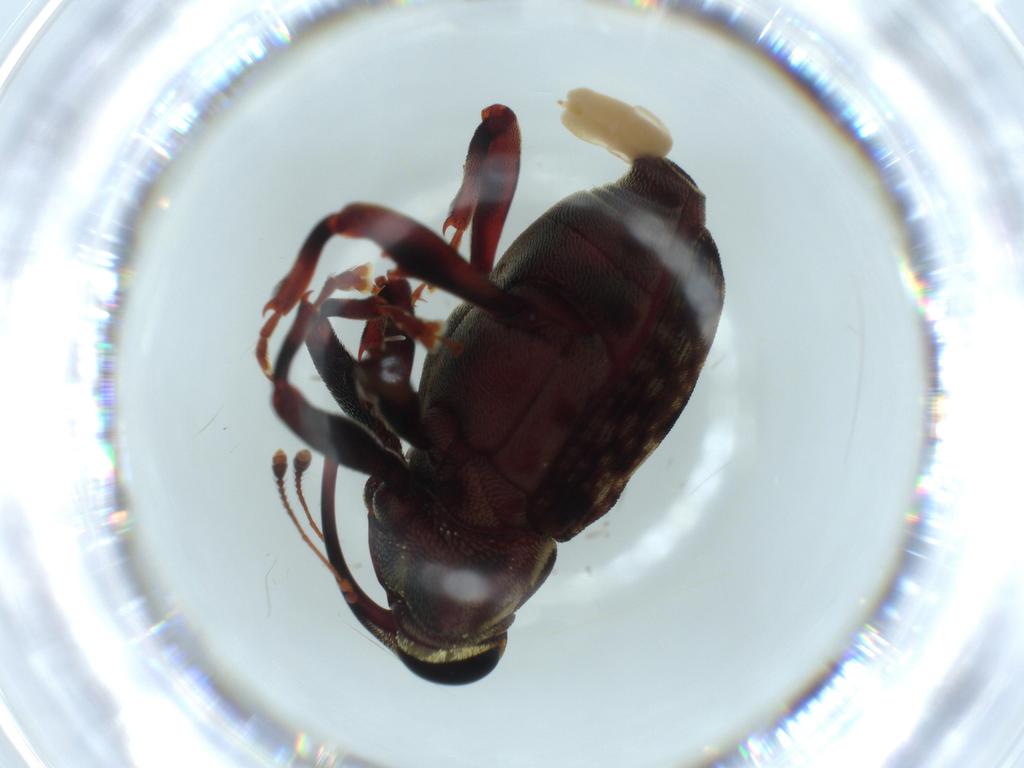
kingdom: Animalia
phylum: Arthropoda
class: Insecta
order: Coleoptera
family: Curculionidae
